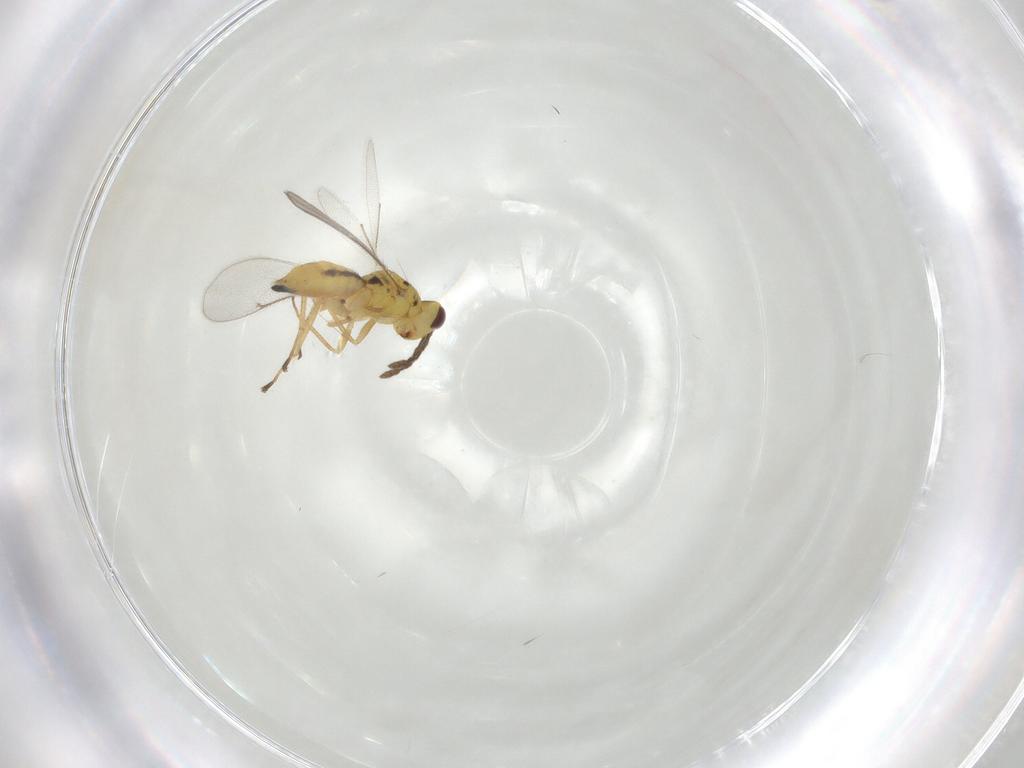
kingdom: Animalia
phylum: Arthropoda
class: Insecta
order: Hymenoptera
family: Eulophidae
